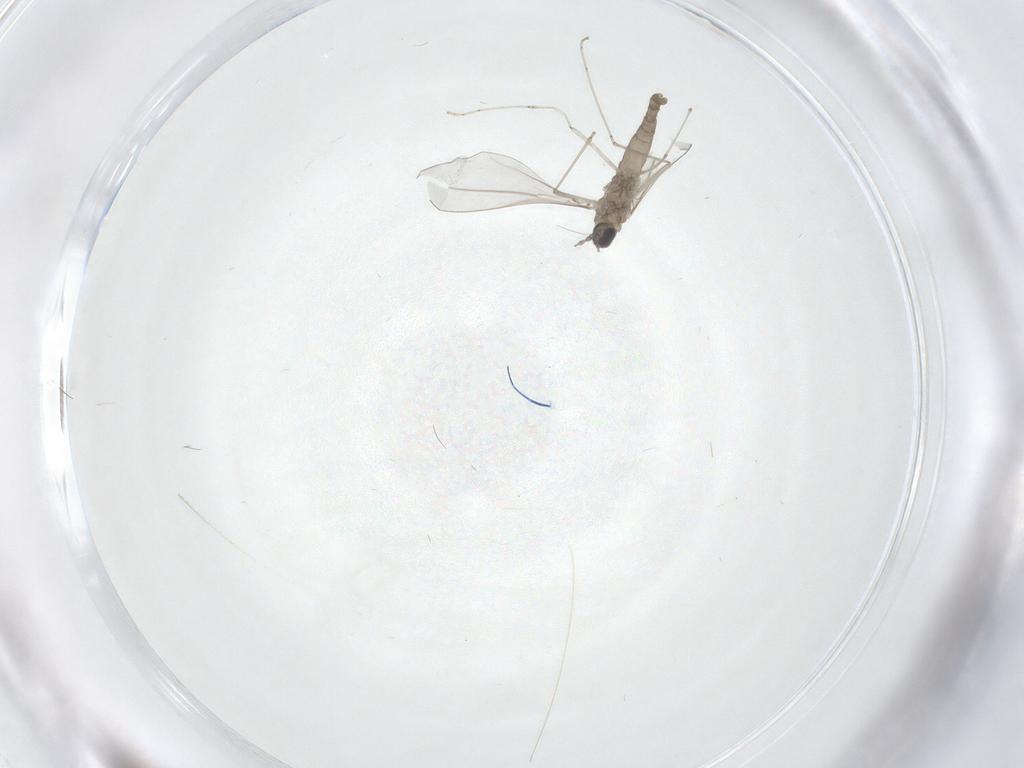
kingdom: Animalia
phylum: Arthropoda
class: Insecta
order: Diptera
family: Cecidomyiidae
